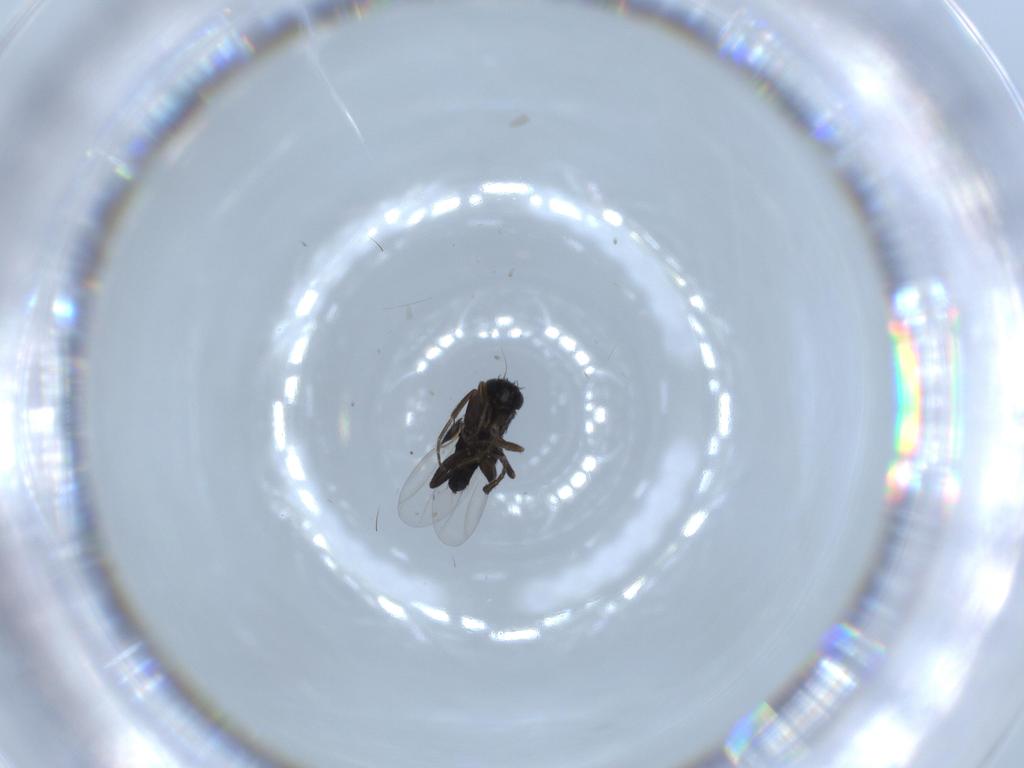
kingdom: Animalia
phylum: Arthropoda
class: Insecta
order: Diptera
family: Phoridae
